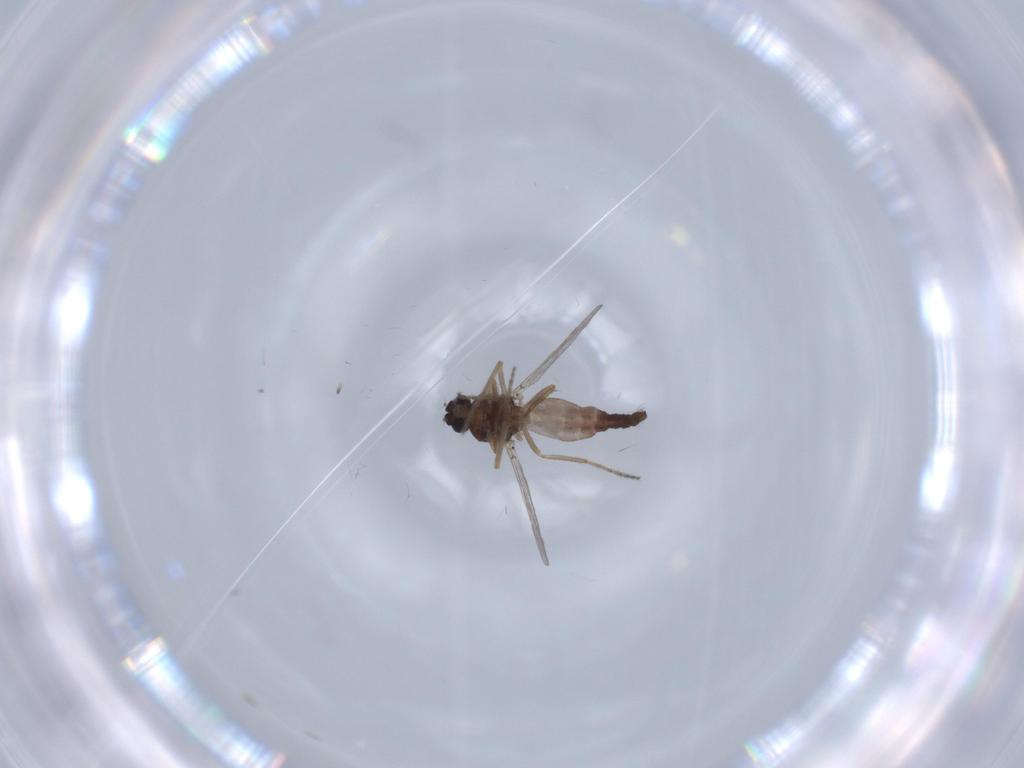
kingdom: Animalia
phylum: Arthropoda
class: Insecta
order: Diptera
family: Ceratopogonidae
